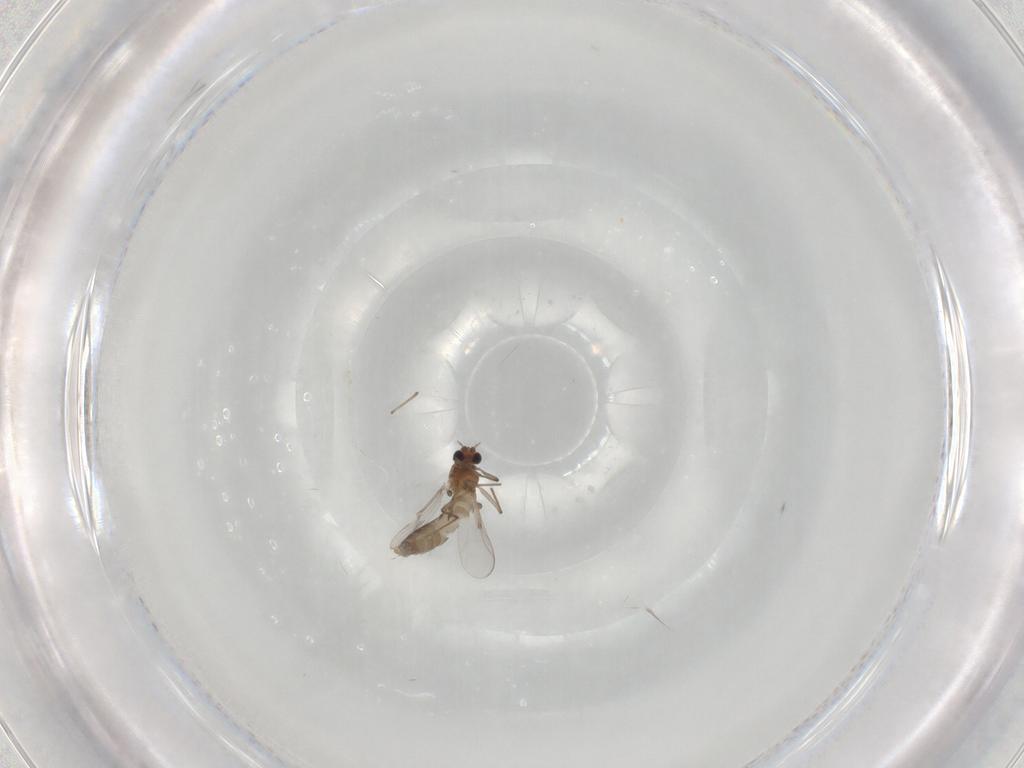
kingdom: Animalia
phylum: Arthropoda
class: Insecta
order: Diptera
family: Chironomidae
